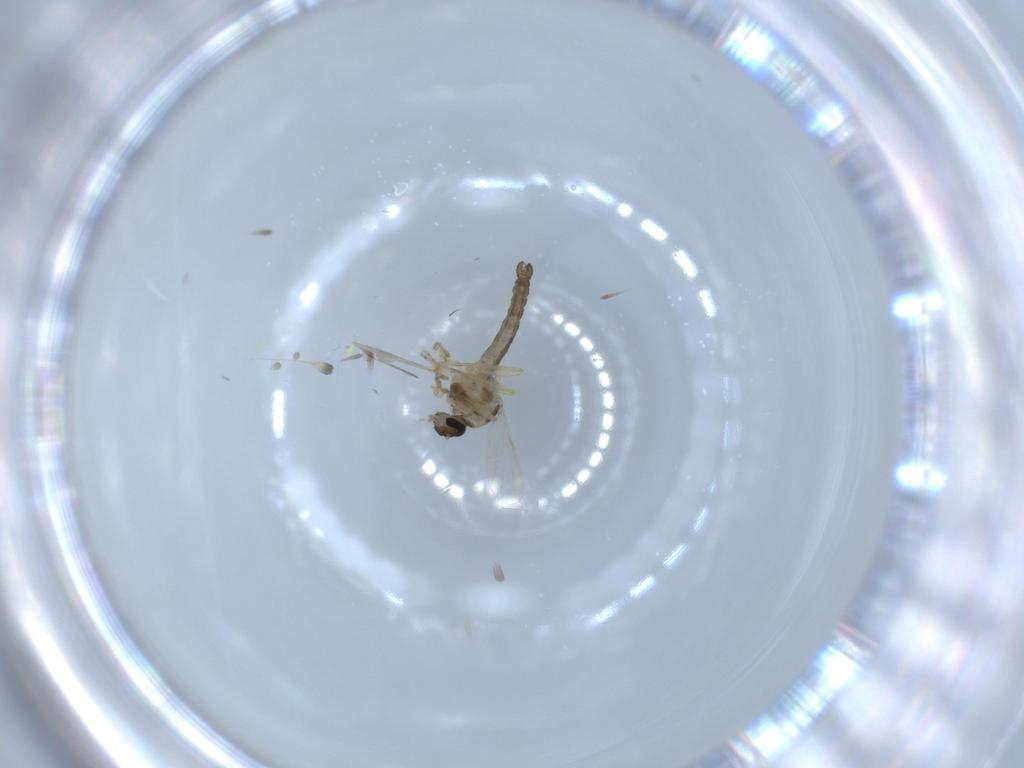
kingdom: Animalia
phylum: Arthropoda
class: Insecta
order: Diptera
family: Ceratopogonidae
